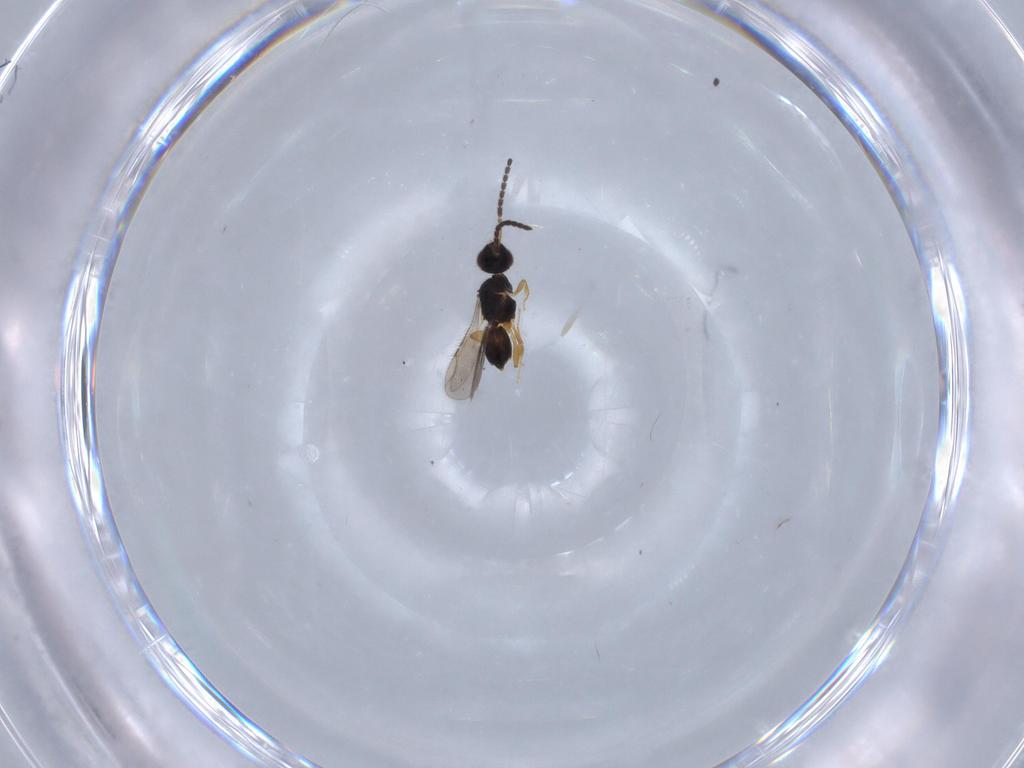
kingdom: Animalia
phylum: Arthropoda
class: Insecta
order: Hymenoptera
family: Ceraphronidae
